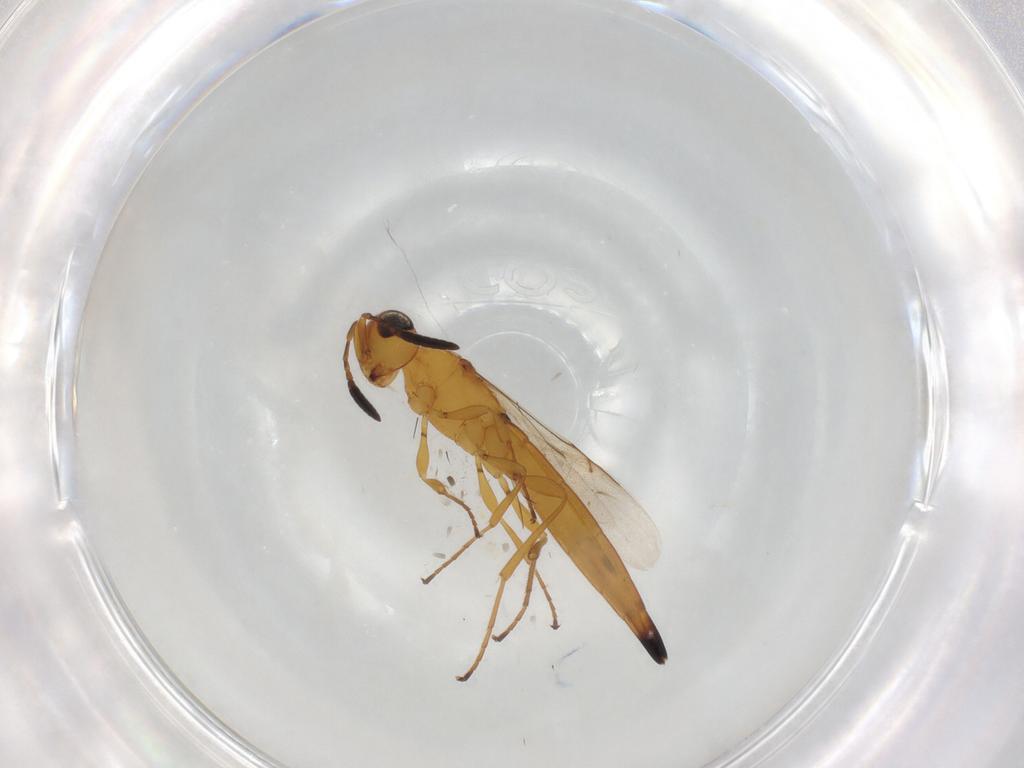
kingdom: Animalia
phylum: Arthropoda
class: Insecta
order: Hymenoptera
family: Scelionidae
